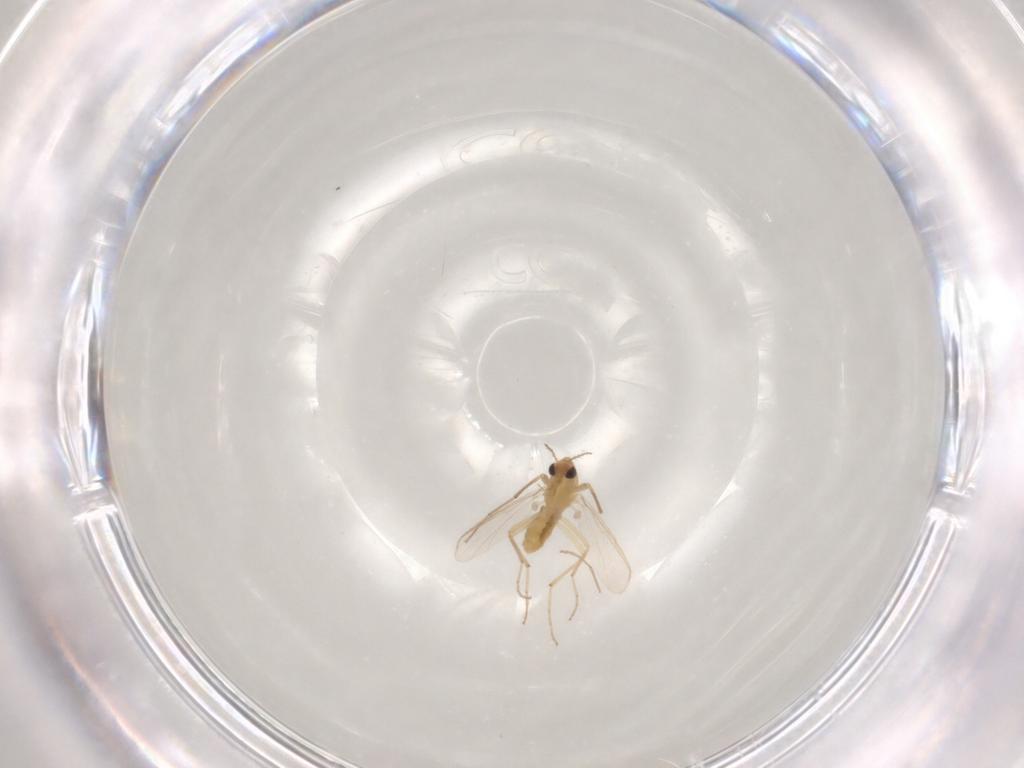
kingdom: Animalia
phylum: Arthropoda
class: Insecta
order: Diptera
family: Chironomidae
